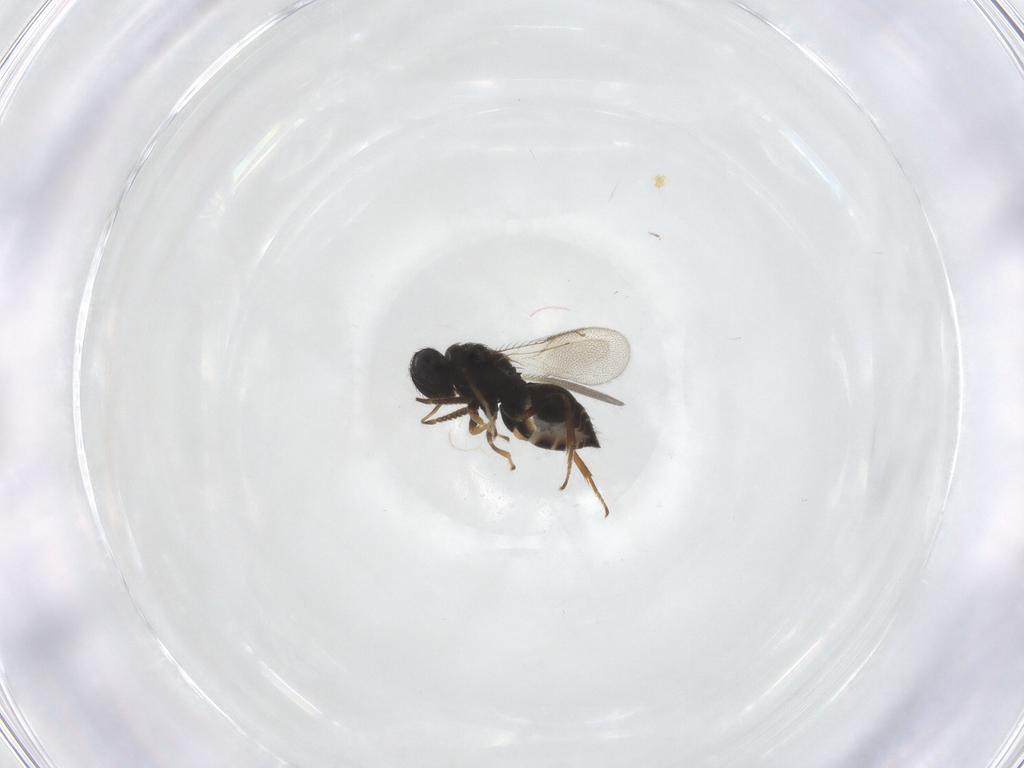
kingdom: Animalia
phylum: Arthropoda
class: Insecta
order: Hymenoptera
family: Pteromalidae
